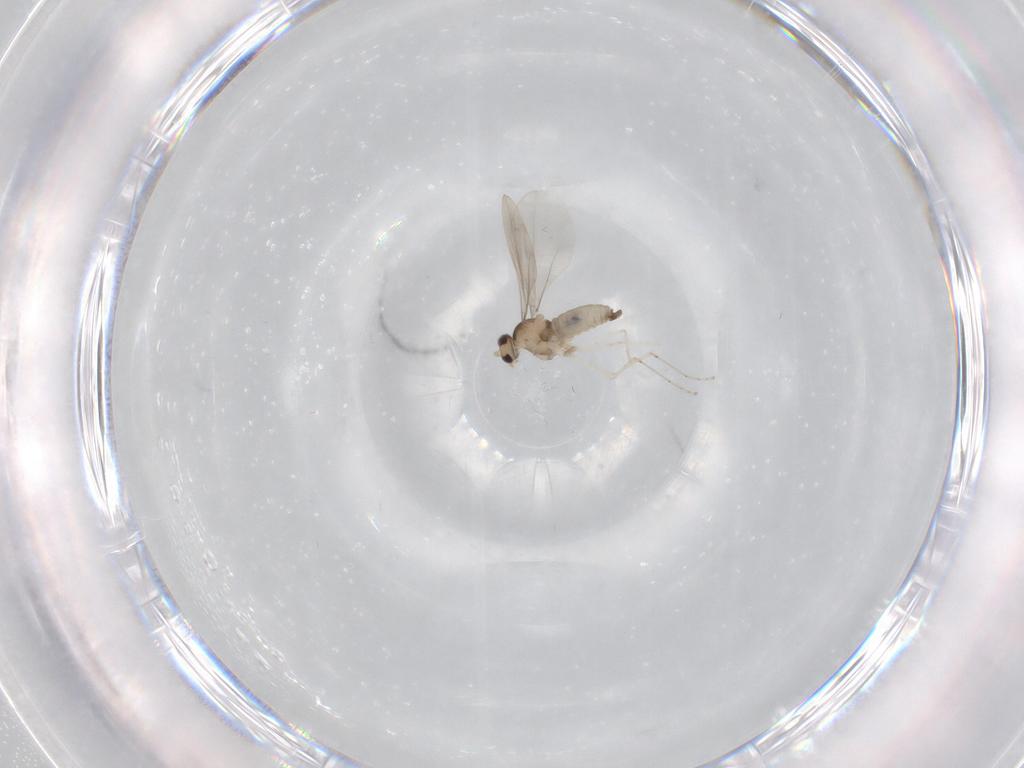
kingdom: Animalia
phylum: Arthropoda
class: Insecta
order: Diptera
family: Cecidomyiidae
